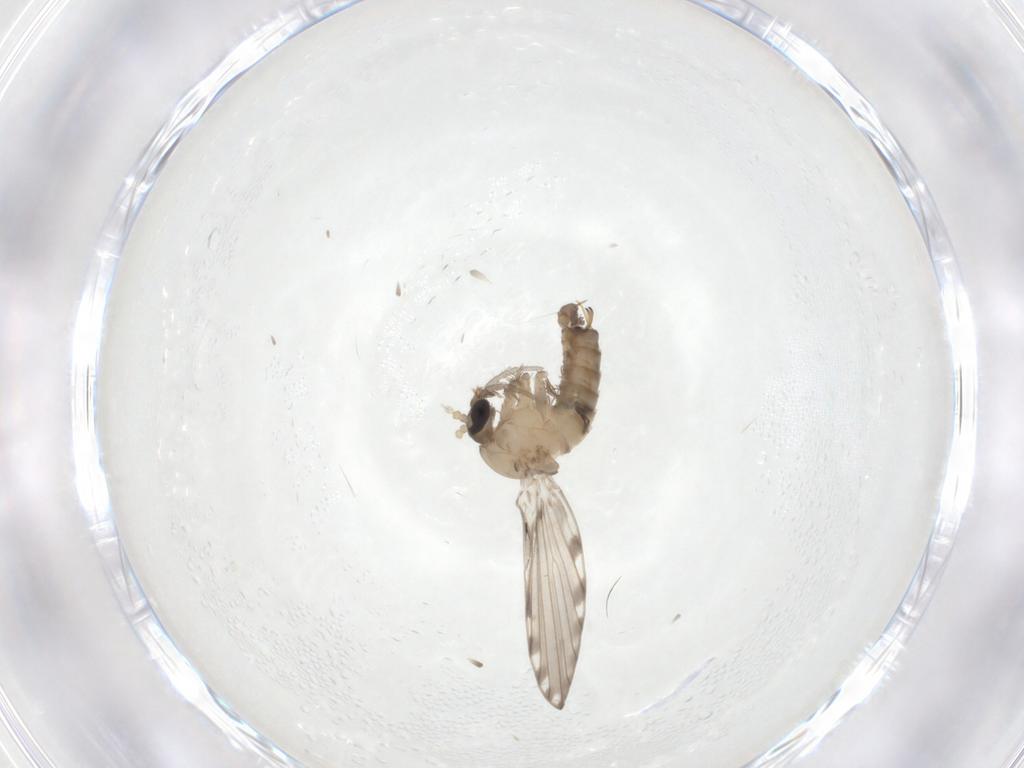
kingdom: Animalia
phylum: Arthropoda
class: Insecta
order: Diptera
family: Psychodidae
